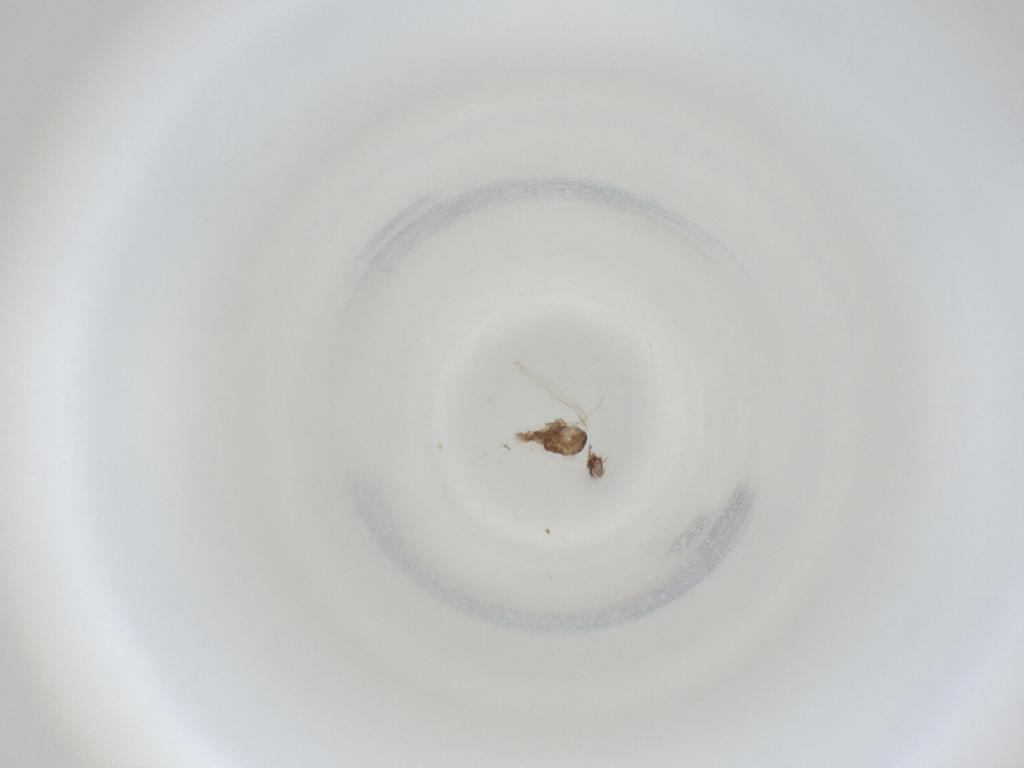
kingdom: Animalia
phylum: Arthropoda
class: Insecta
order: Diptera
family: Cecidomyiidae
